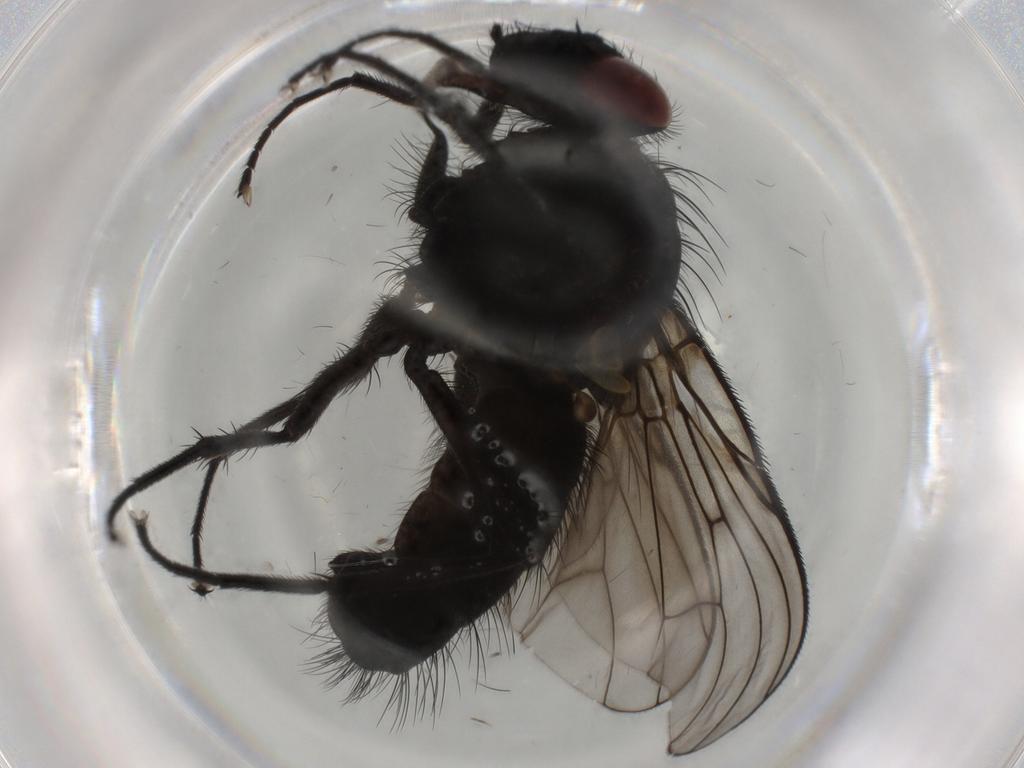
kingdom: Animalia
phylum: Arthropoda
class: Insecta
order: Diptera
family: Muscidae
